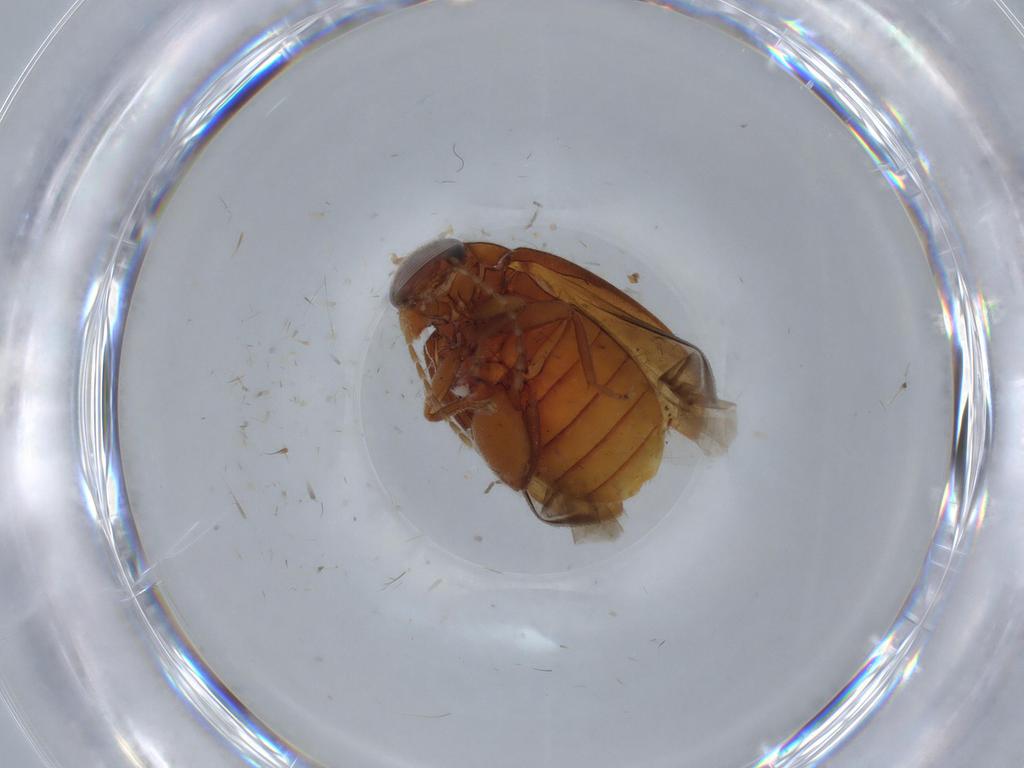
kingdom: Animalia
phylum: Arthropoda
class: Insecta
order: Coleoptera
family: Scirtidae
